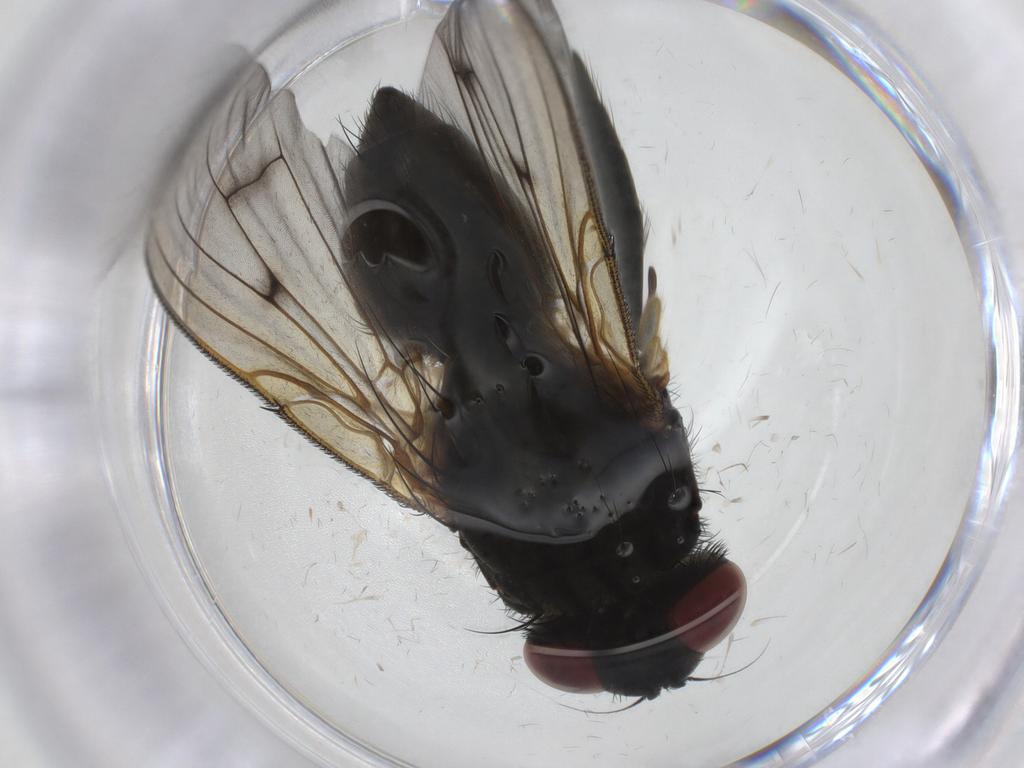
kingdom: Animalia
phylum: Arthropoda
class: Insecta
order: Diptera
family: Muscidae
